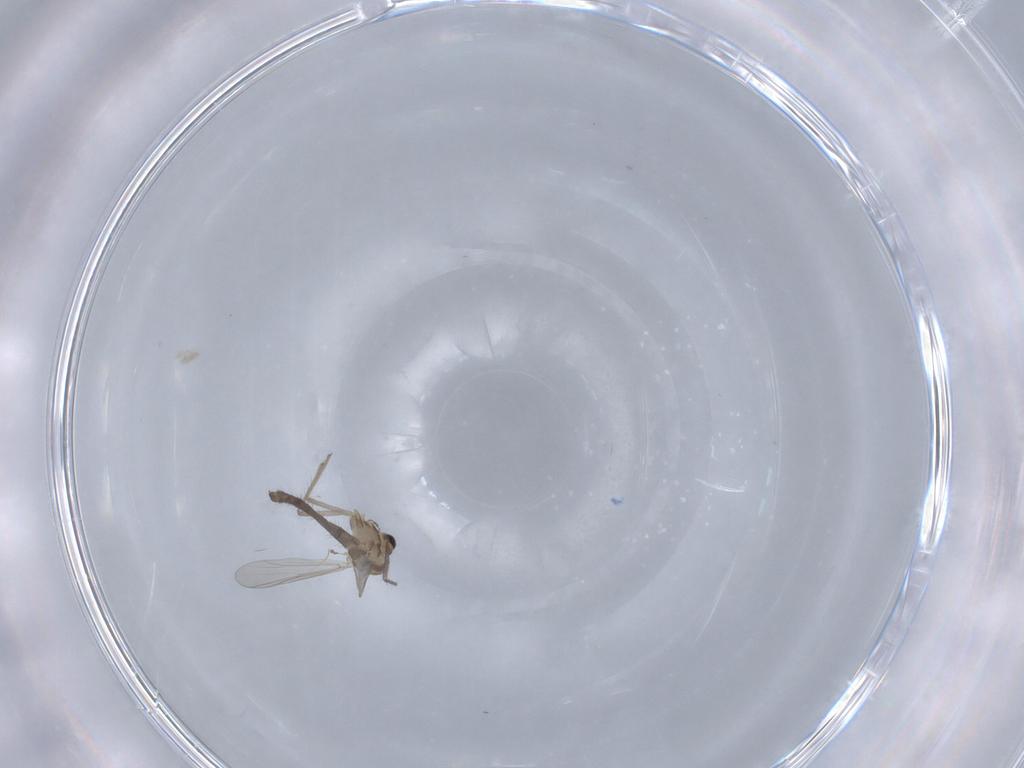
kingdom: Animalia
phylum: Arthropoda
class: Insecta
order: Diptera
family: Chironomidae
